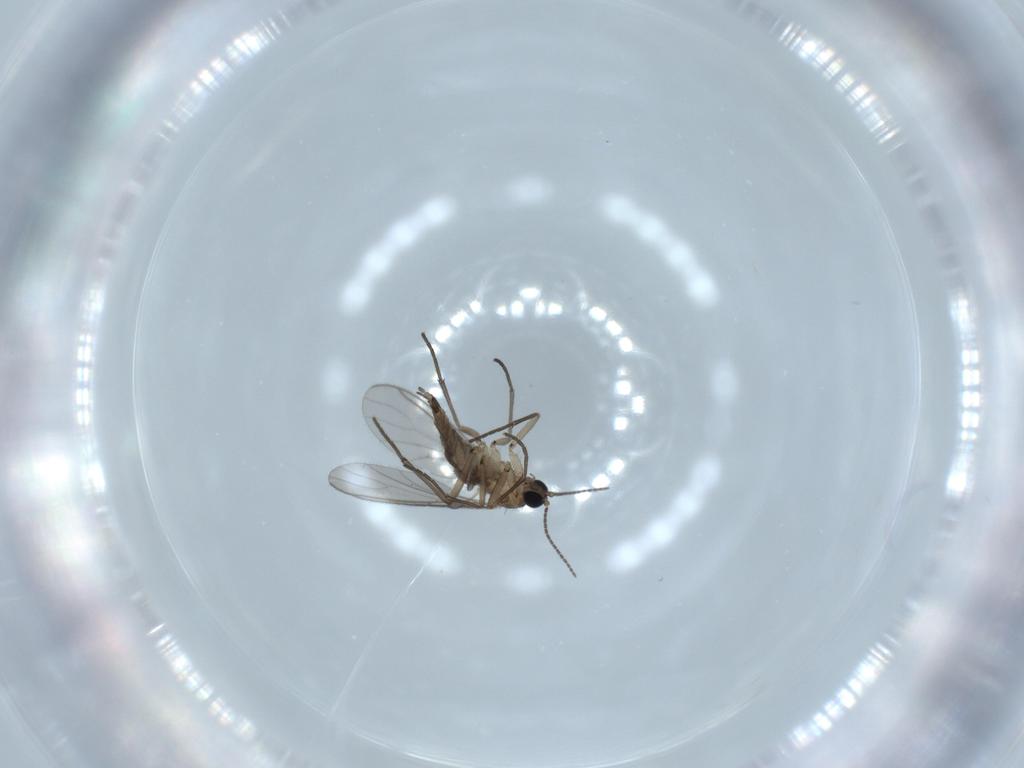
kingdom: Animalia
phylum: Arthropoda
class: Insecta
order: Diptera
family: Sciaridae
